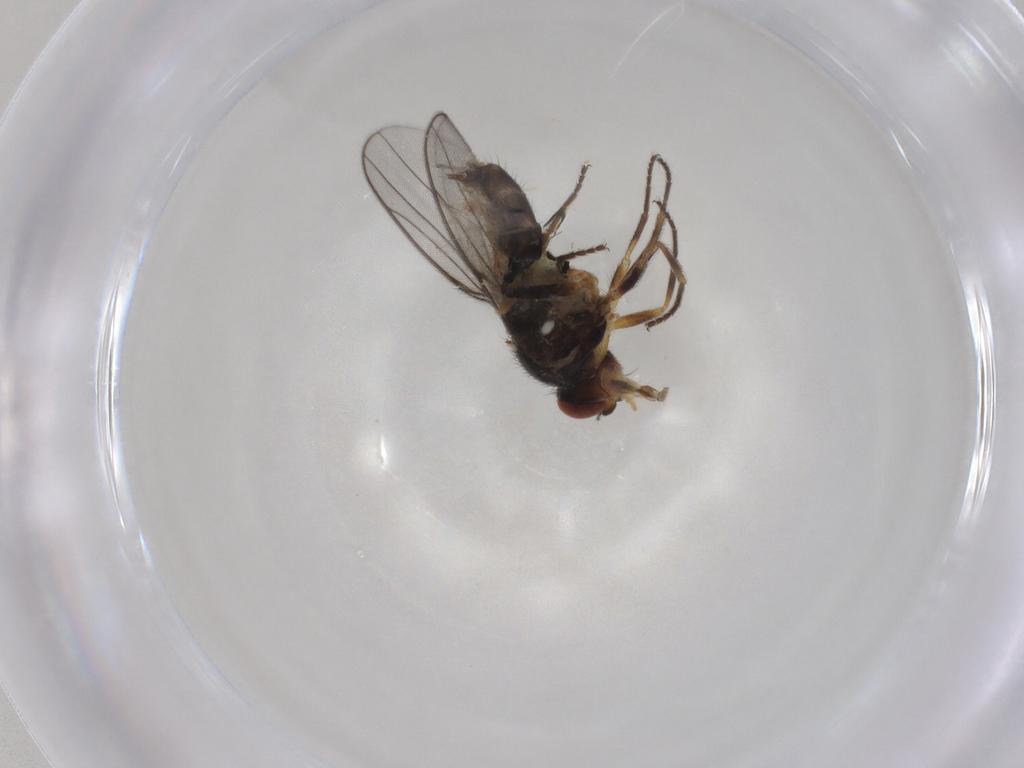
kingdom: Animalia
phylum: Arthropoda
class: Insecta
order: Diptera
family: Chloropidae
